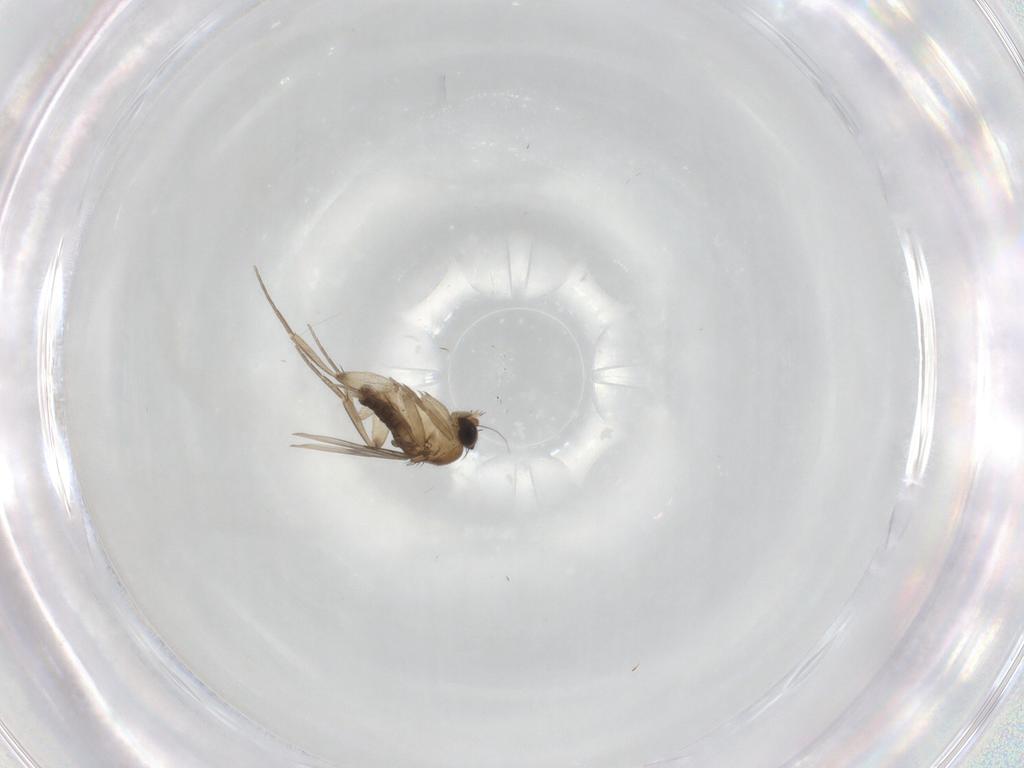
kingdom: Animalia
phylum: Arthropoda
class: Insecta
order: Diptera
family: Phoridae
